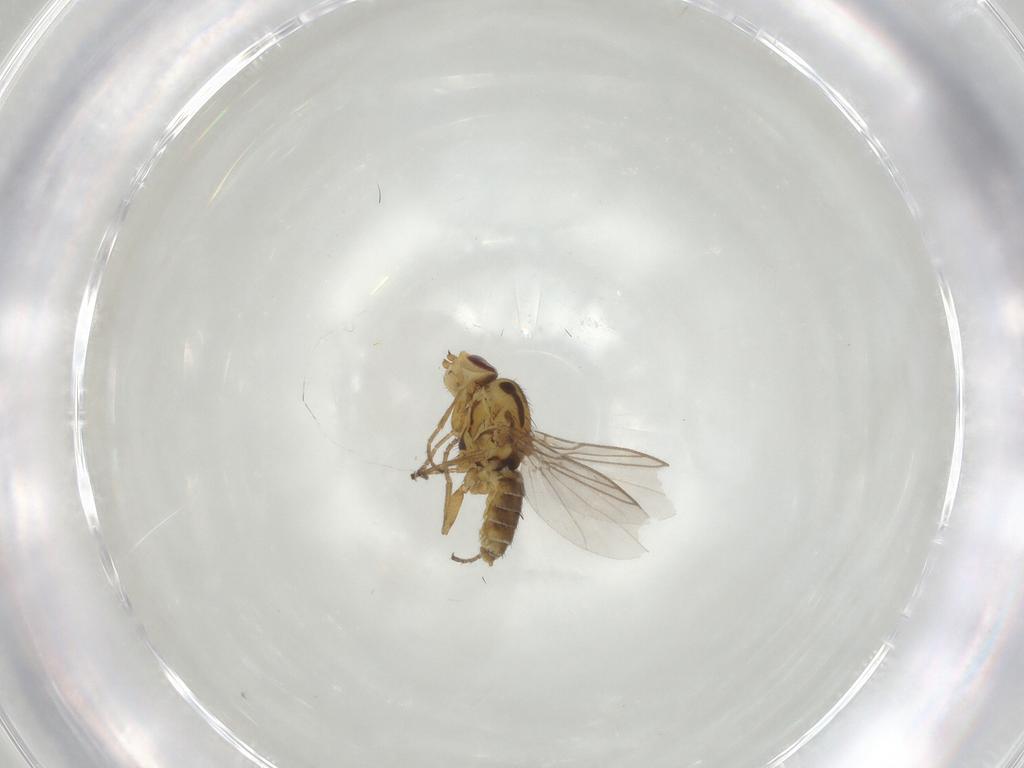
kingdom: Animalia
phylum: Arthropoda
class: Insecta
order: Diptera
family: Agromyzidae
